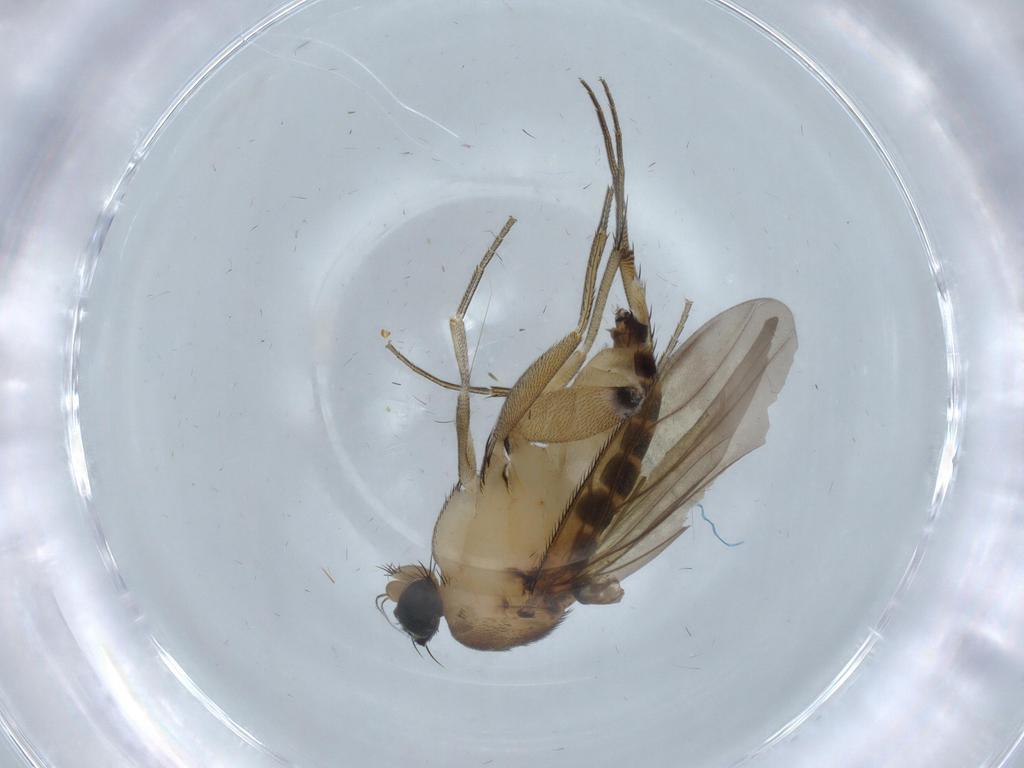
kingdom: Animalia
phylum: Arthropoda
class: Insecta
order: Diptera
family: Phoridae
